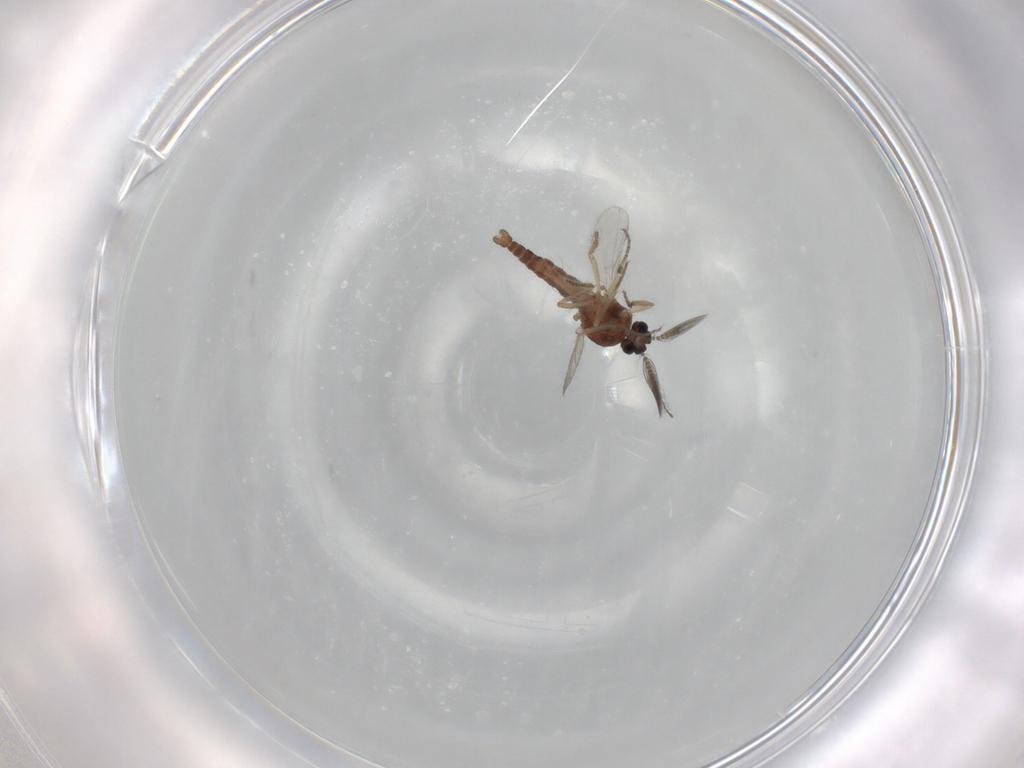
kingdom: Animalia
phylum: Arthropoda
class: Insecta
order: Diptera
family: Ceratopogonidae
